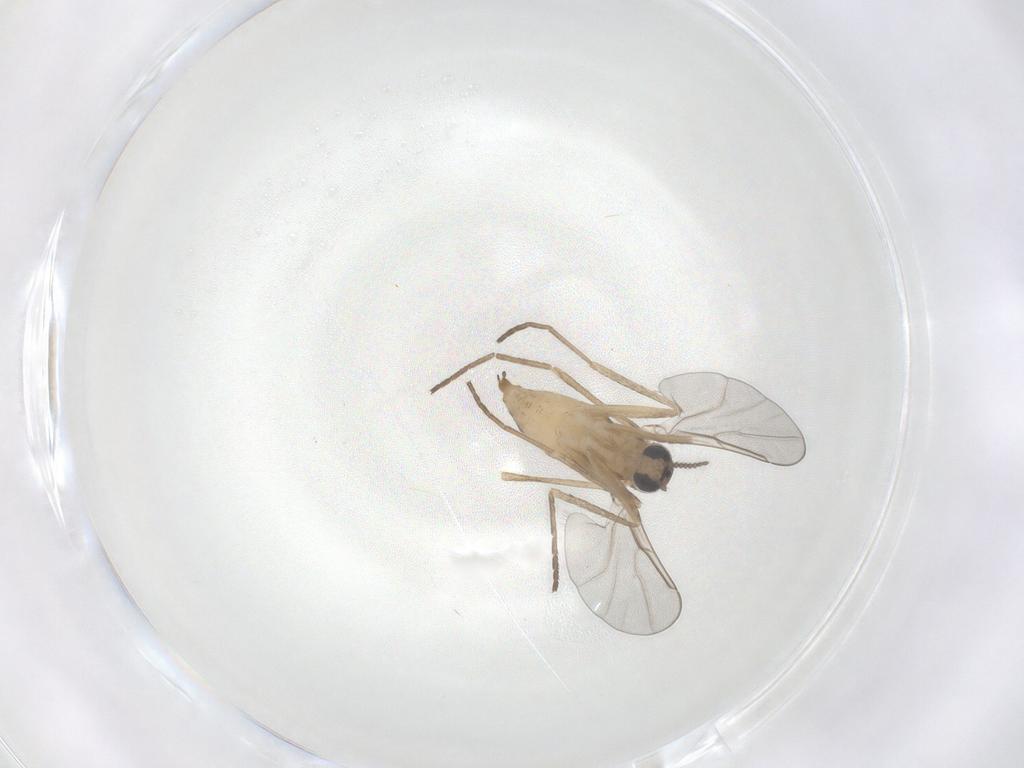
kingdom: Animalia
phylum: Arthropoda
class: Insecta
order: Diptera
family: Cecidomyiidae
